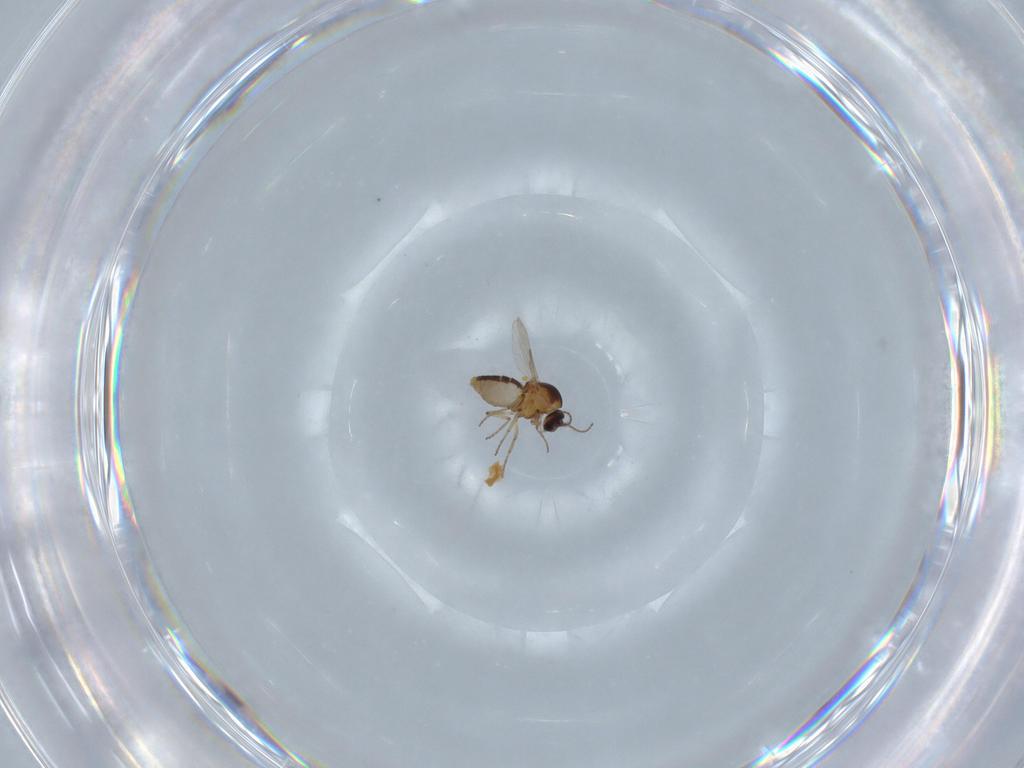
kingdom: Animalia
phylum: Arthropoda
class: Insecta
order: Diptera
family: Ceratopogonidae
